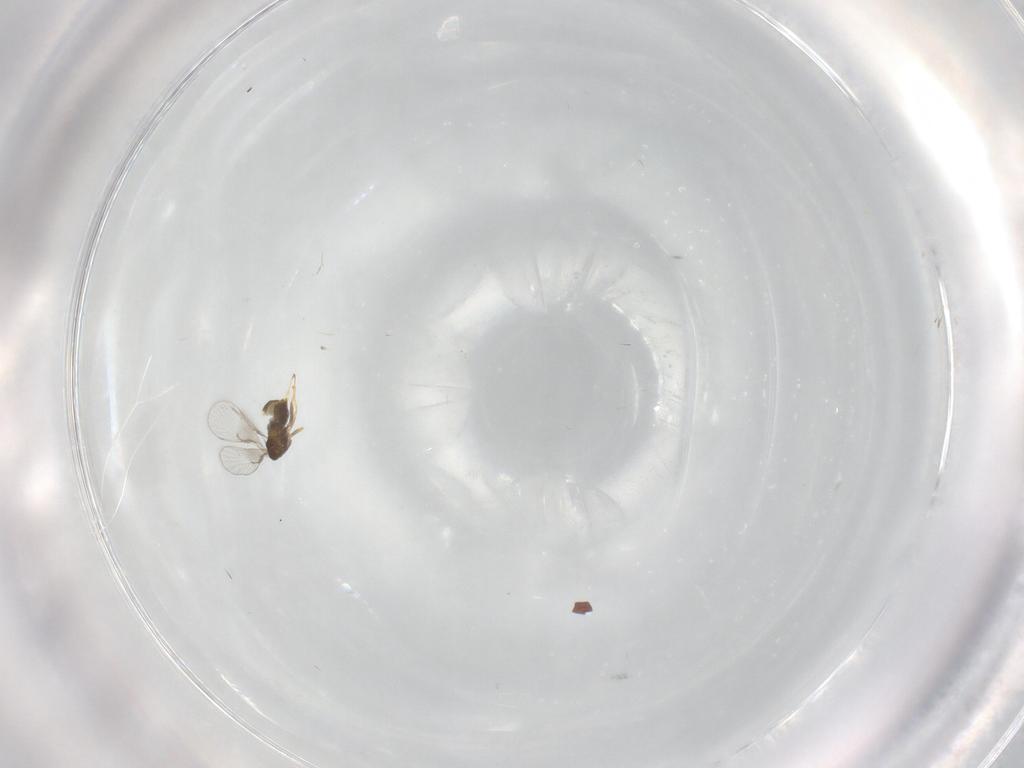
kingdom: Animalia
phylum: Arthropoda
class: Insecta
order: Hymenoptera
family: Trichogrammatidae
